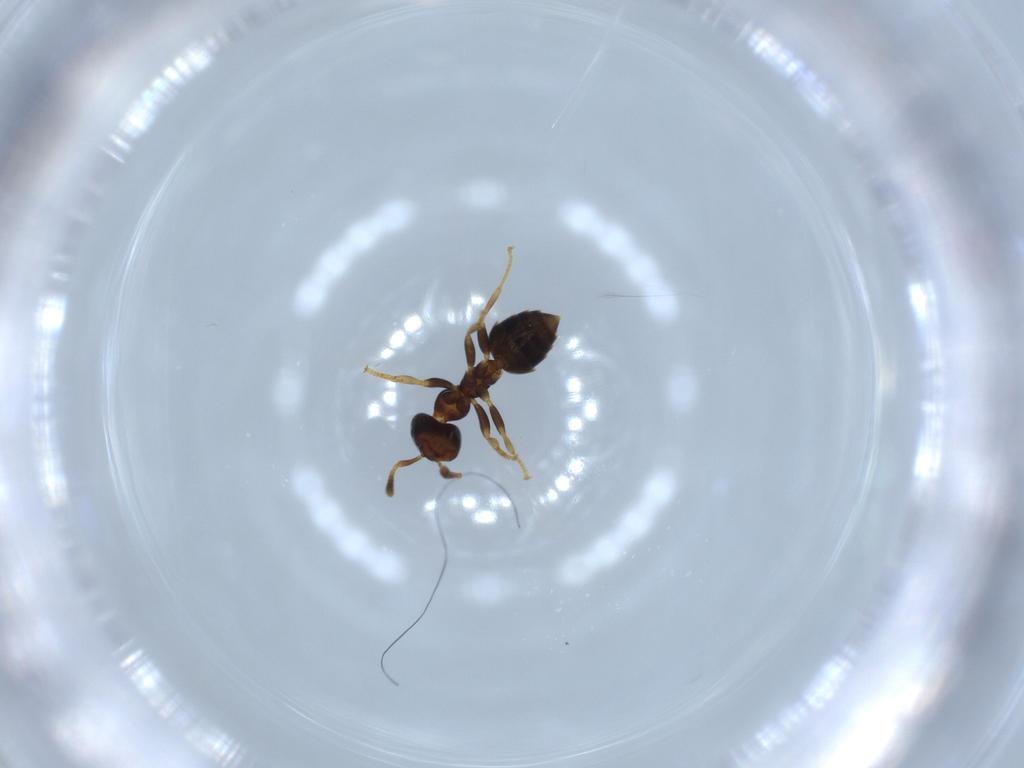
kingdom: Animalia
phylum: Arthropoda
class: Insecta
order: Hymenoptera
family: Formicidae
